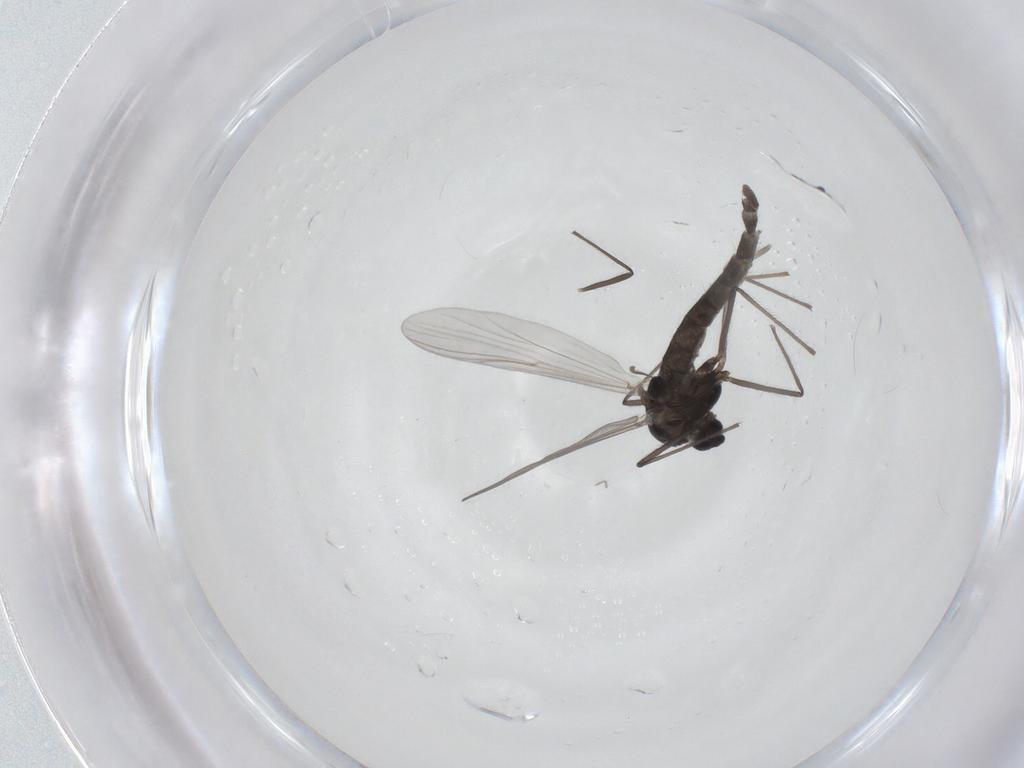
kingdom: Animalia
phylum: Arthropoda
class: Insecta
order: Diptera
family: Chironomidae
